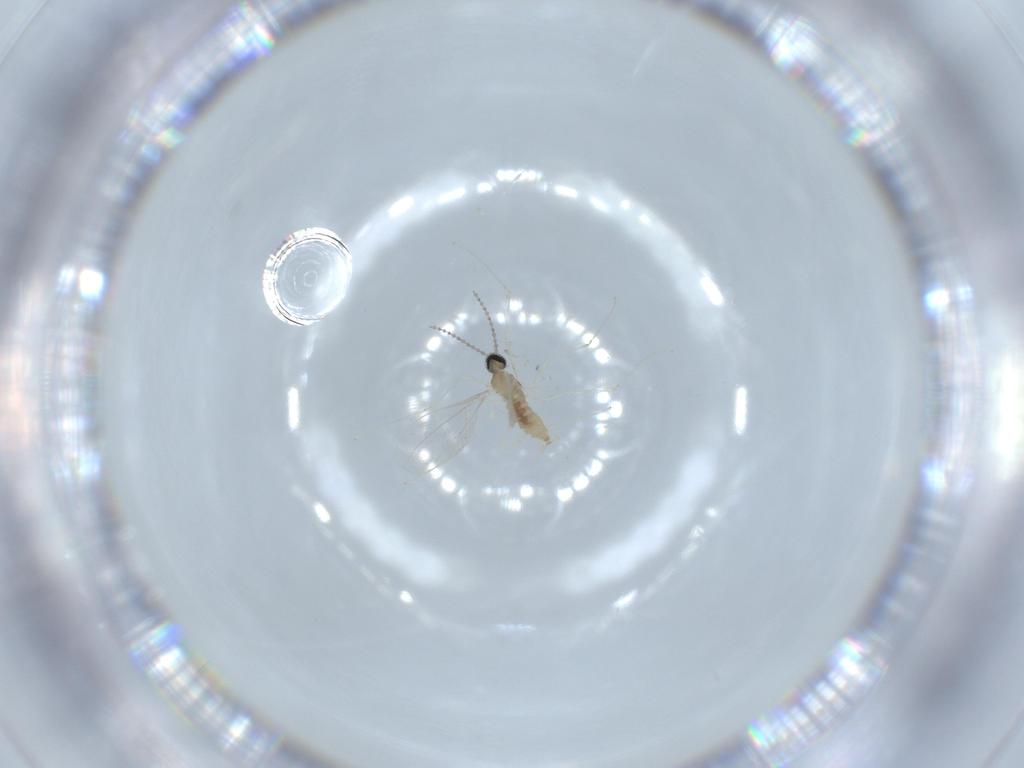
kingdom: Animalia
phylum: Arthropoda
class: Insecta
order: Diptera
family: Cecidomyiidae
